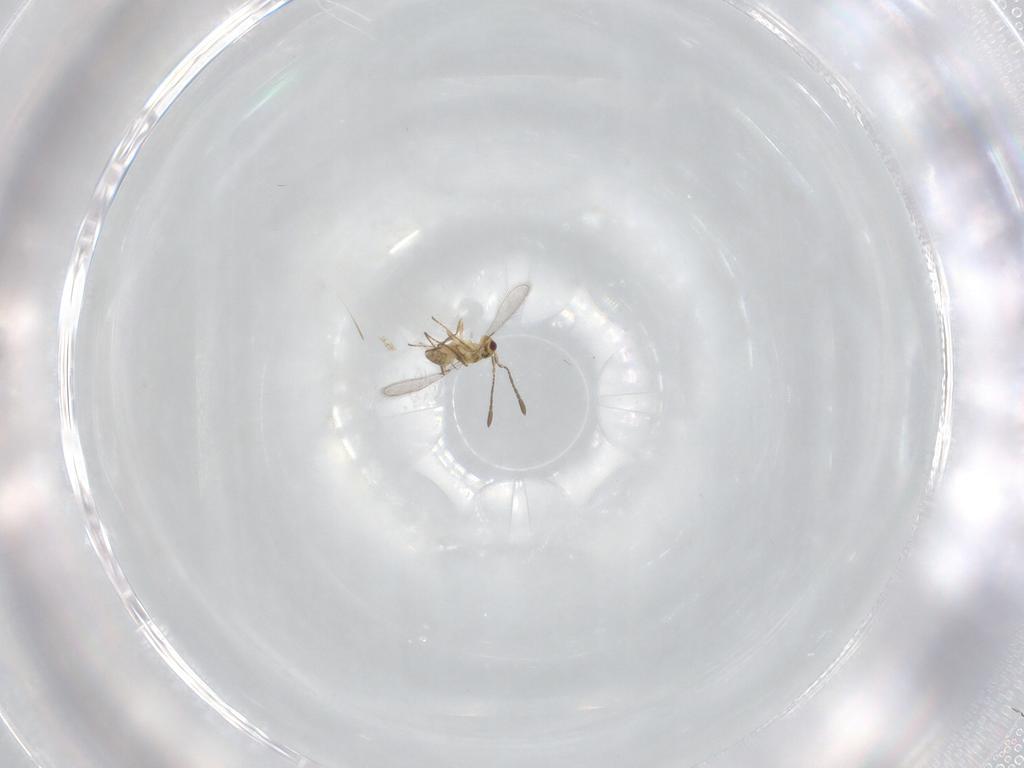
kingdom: Animalia
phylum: Arthropoda
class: Insecta
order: Hymenoptera
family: Mymaridae
